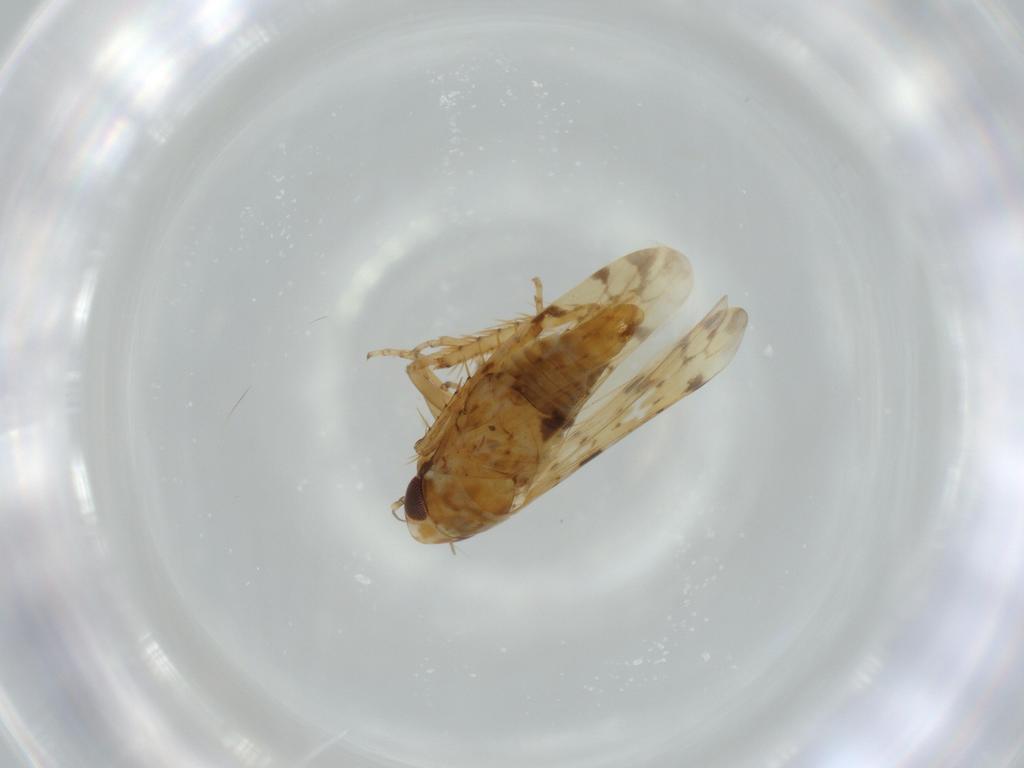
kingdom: Animalia
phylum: Arthropoda
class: Insecta
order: Hemiptera
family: Cicadellidae
